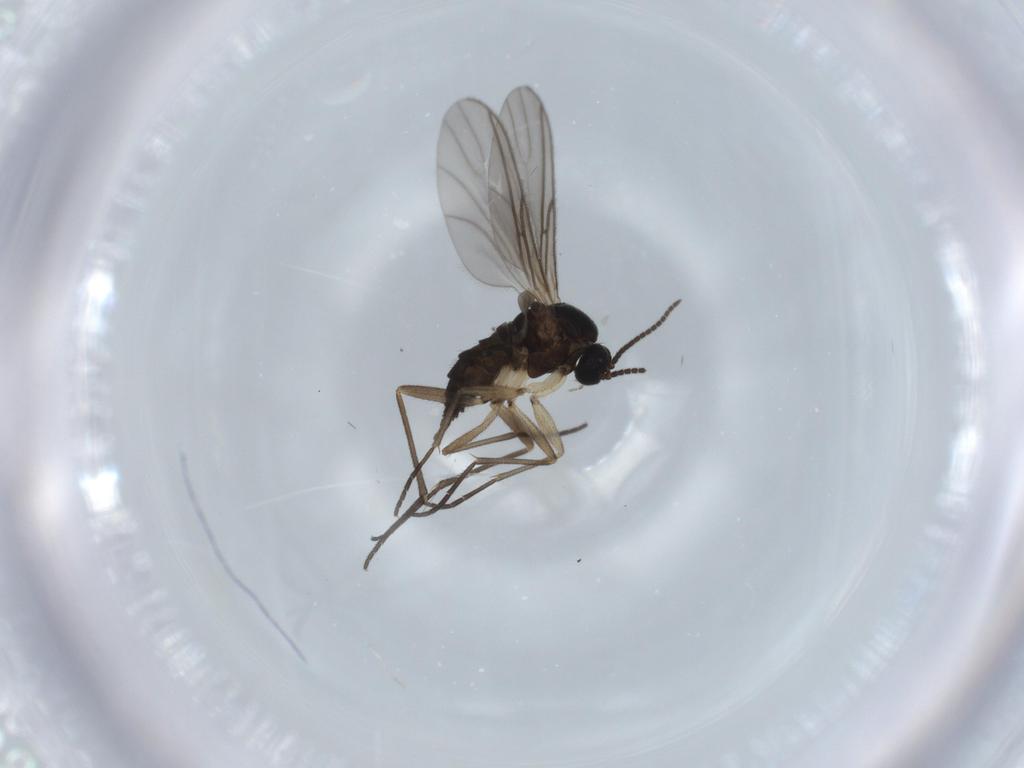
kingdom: Animalia
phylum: Arthropoda
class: Insecta
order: Diptera
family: Sciaridae
